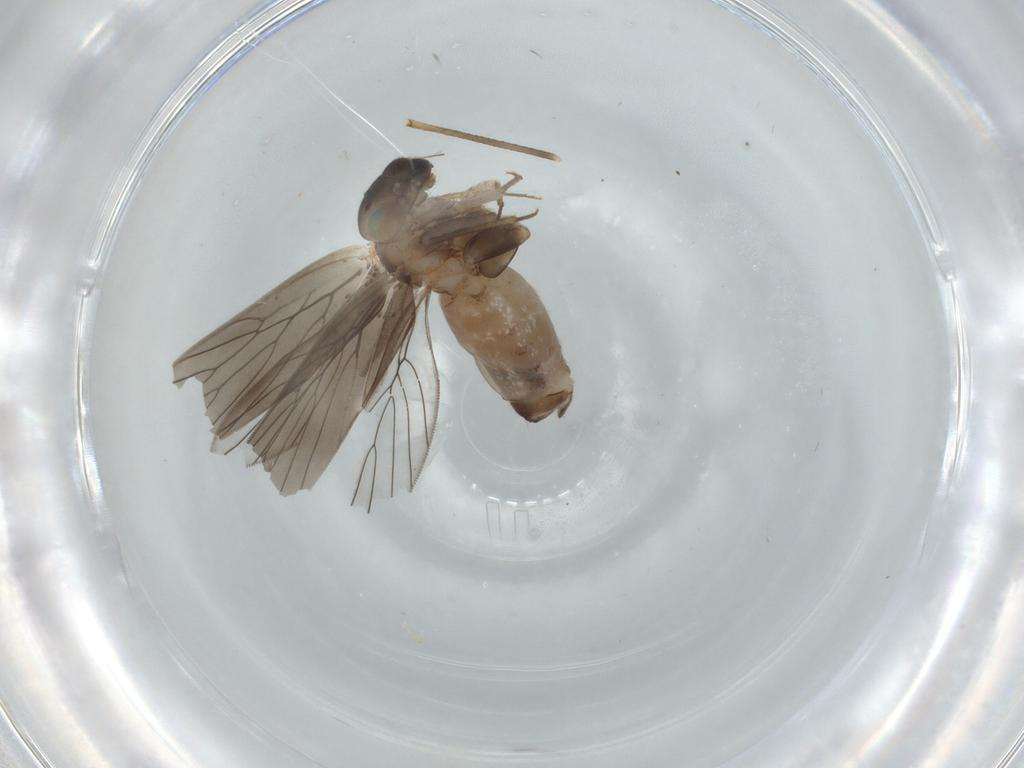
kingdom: Animalia
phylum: Arthropoda
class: Insecta
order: Psocodea
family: Lepidopsocidae
